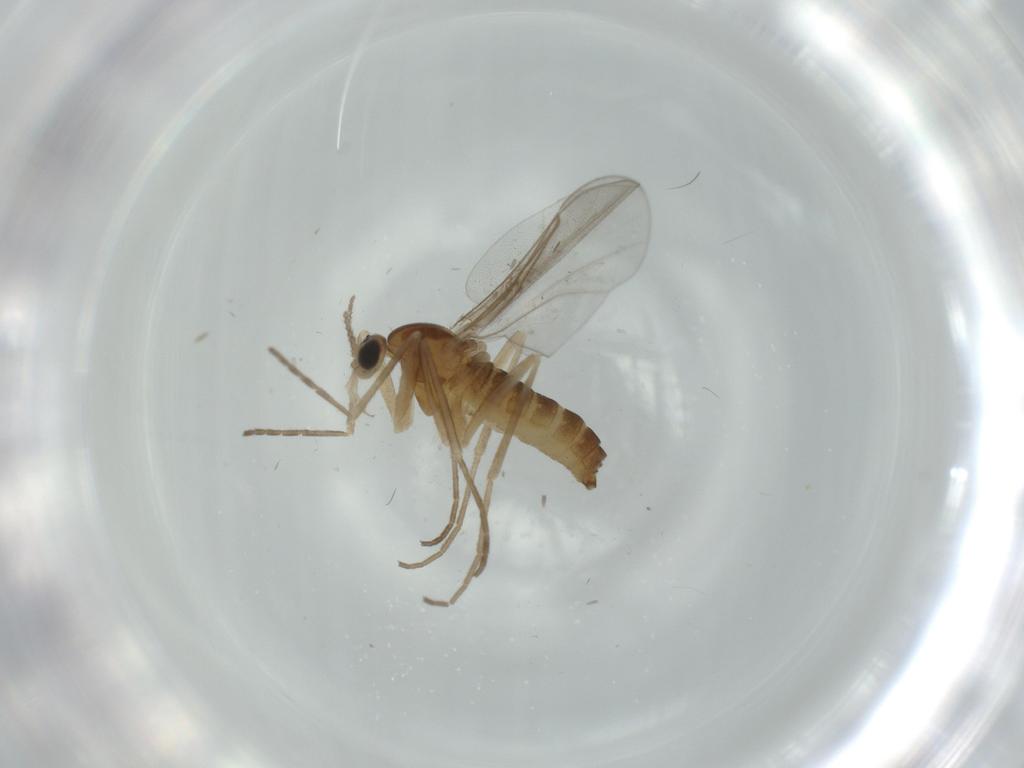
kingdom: Animalia
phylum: Arthropoda
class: Insecta
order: Diptera
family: Cecidomyiidae
